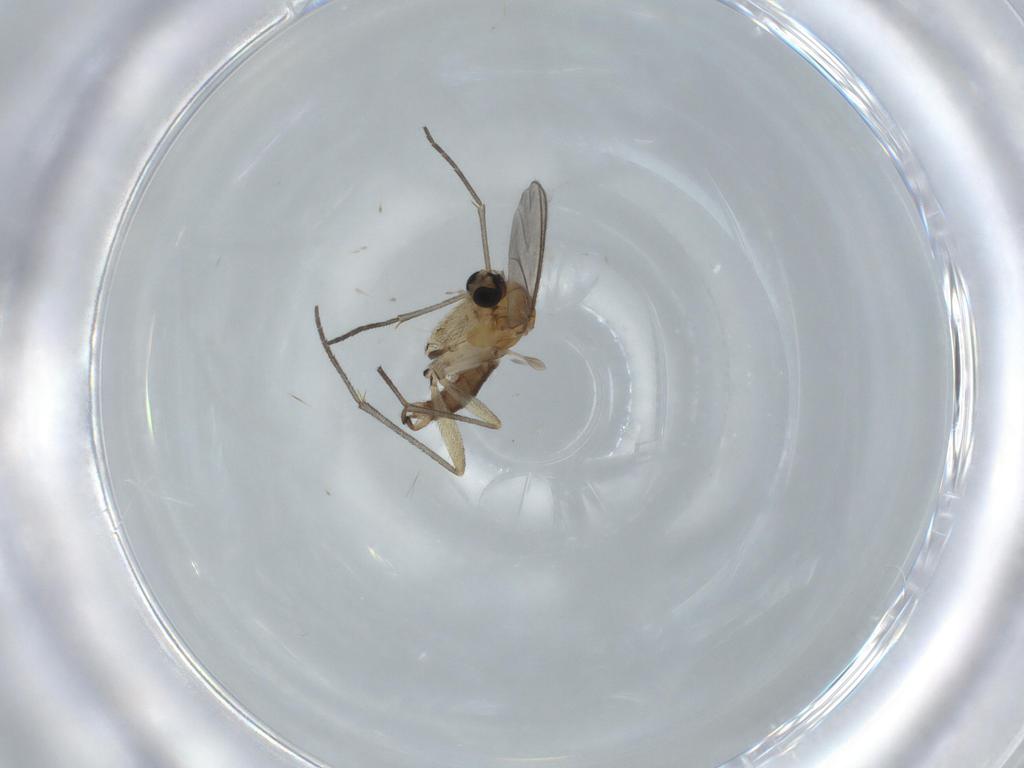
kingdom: Animalia
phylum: Arthropoda
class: Insecta
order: Diptera
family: Sciaridae
